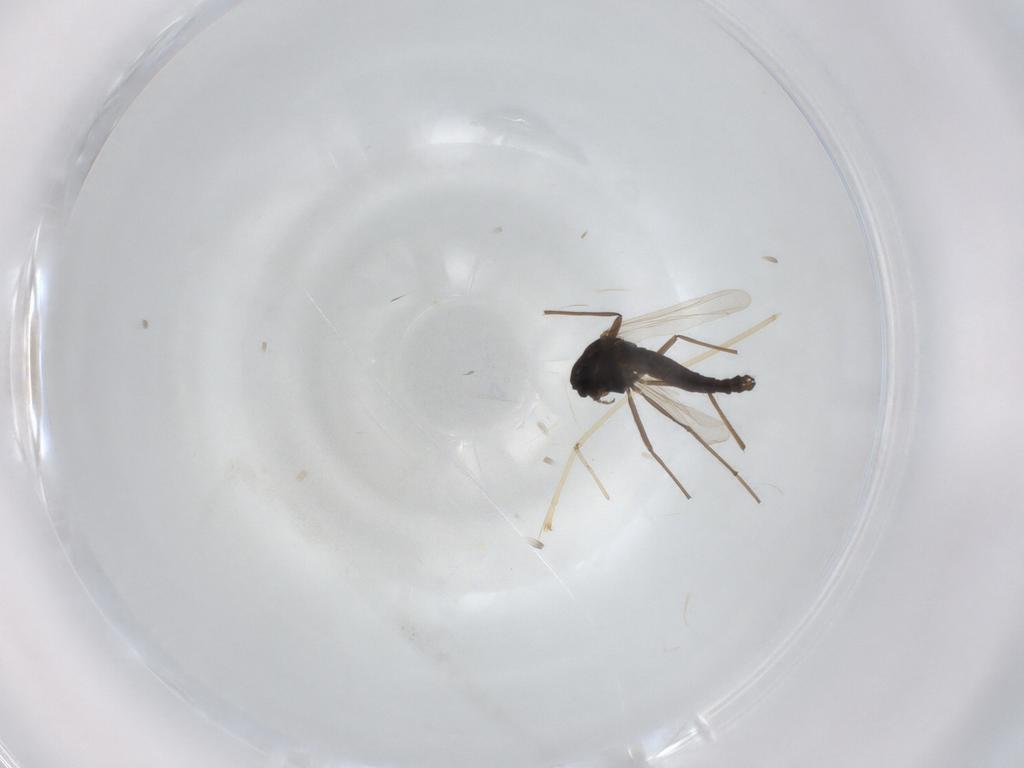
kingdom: Animalia
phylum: Arthropoda
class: Insecta
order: Diptera
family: Chironomidae
